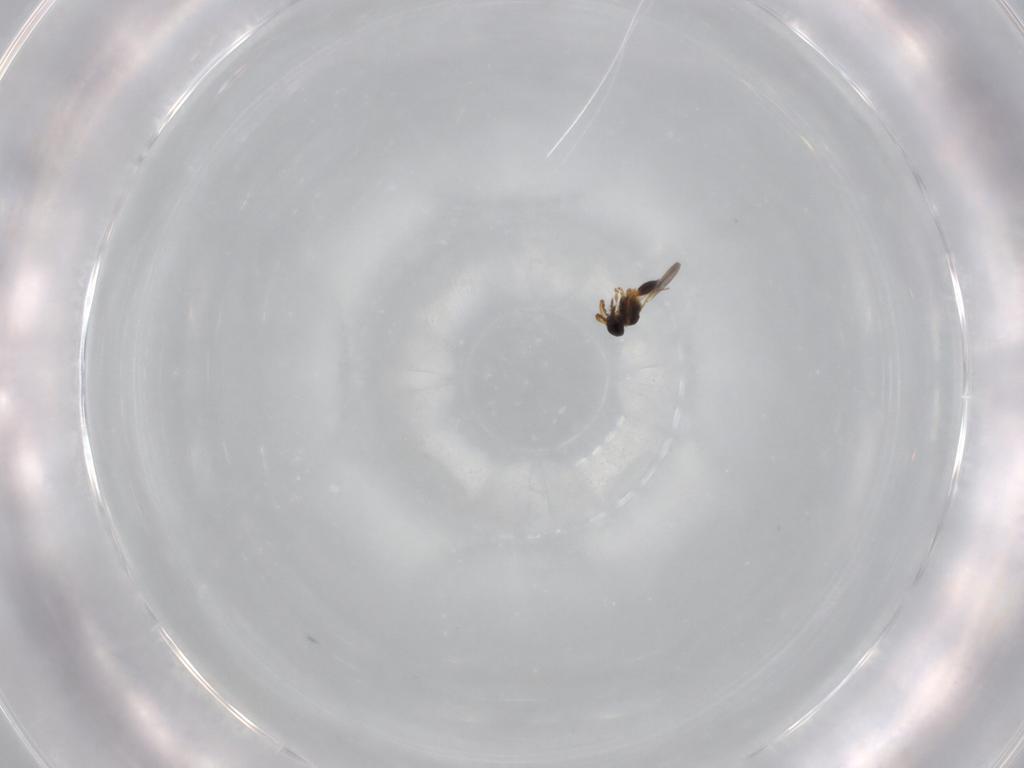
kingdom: Animalia
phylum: Arthropoda
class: Insecta
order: Hymenoptera
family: Platygastridae
